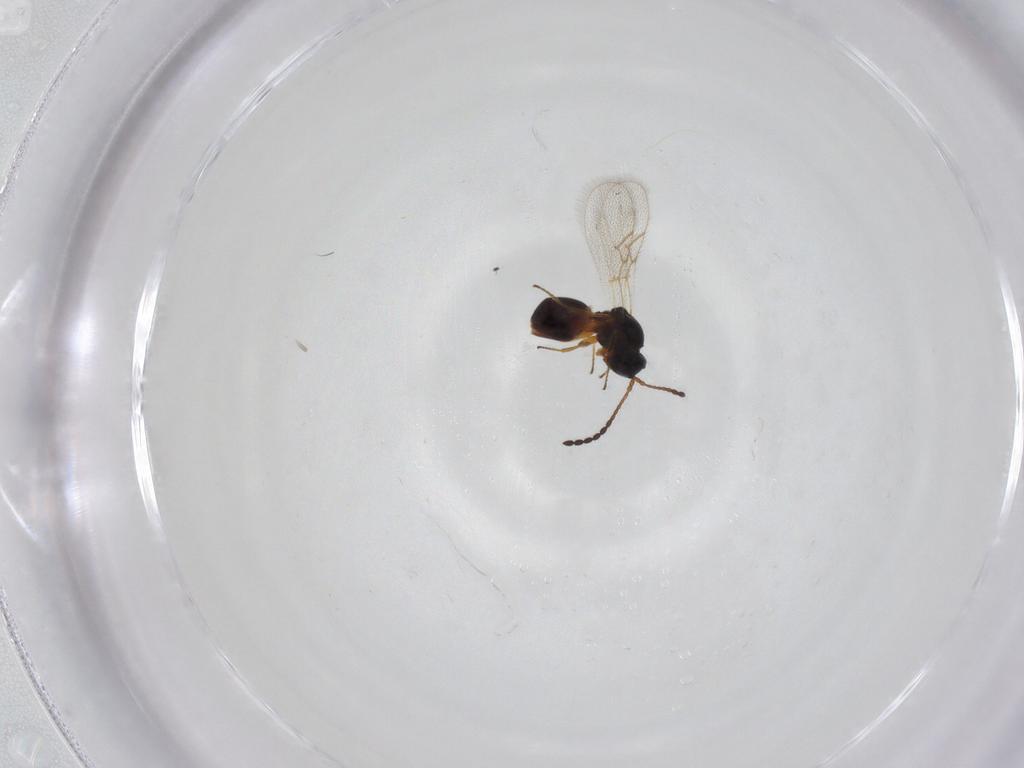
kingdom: Animalia
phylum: Arthropoda
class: Insecta
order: Hymenoptera
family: Figitidae
